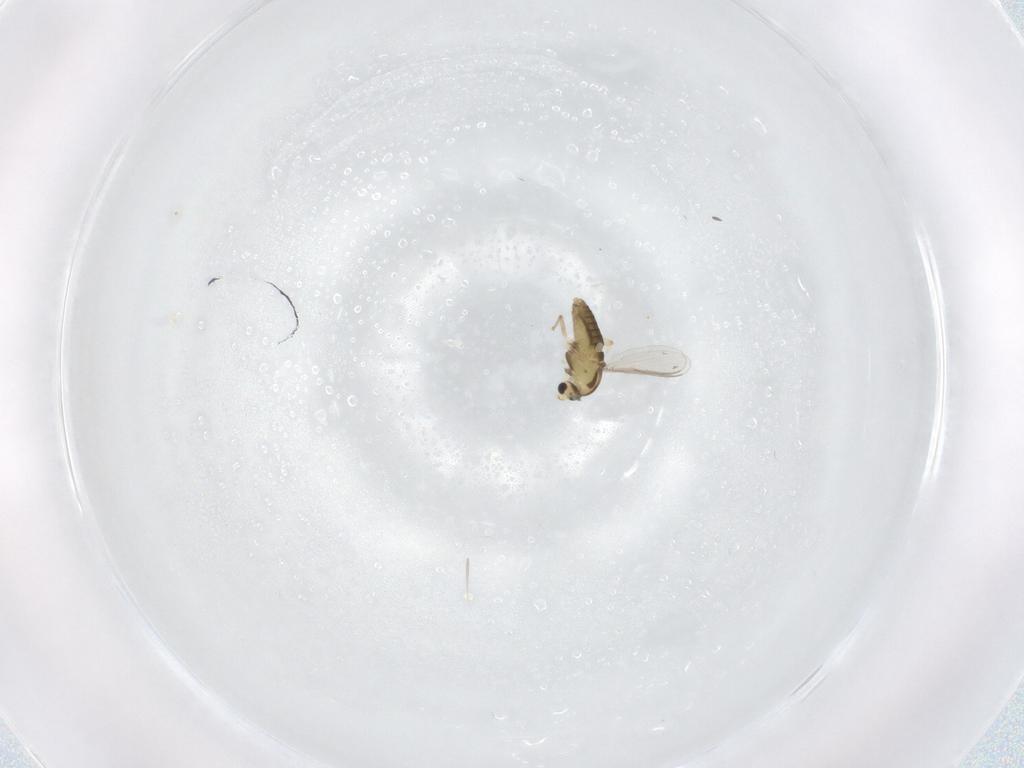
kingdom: Animalia
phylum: Arthropoda
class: Insecta
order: Diptera
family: Chironomidae
